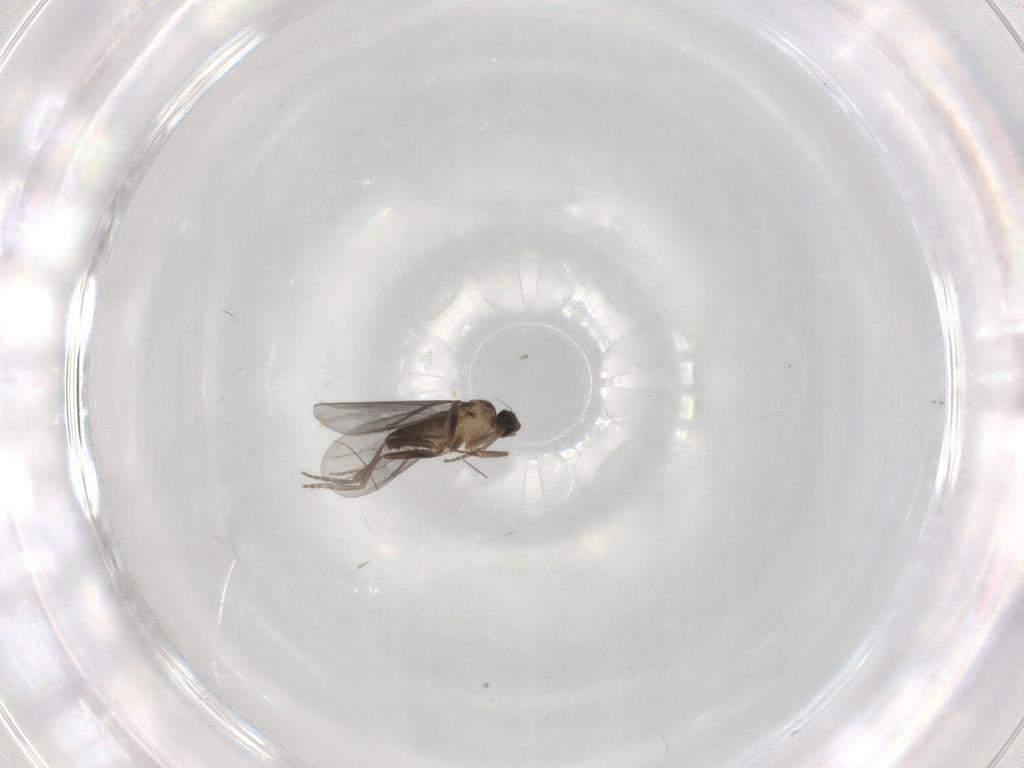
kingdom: Animalia
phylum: Arthropoda
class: Insecta
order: Diptera
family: Phoridae
